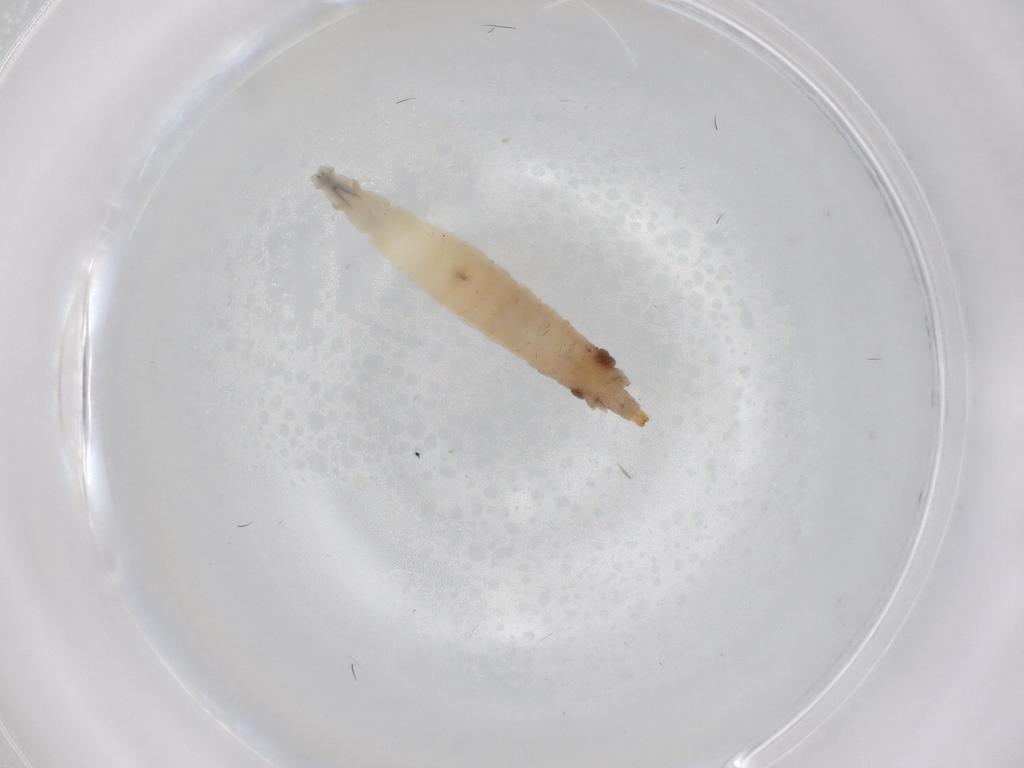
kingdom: Animalia
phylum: Arthropoda
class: Insecta
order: Diptera
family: Drosophilidae
